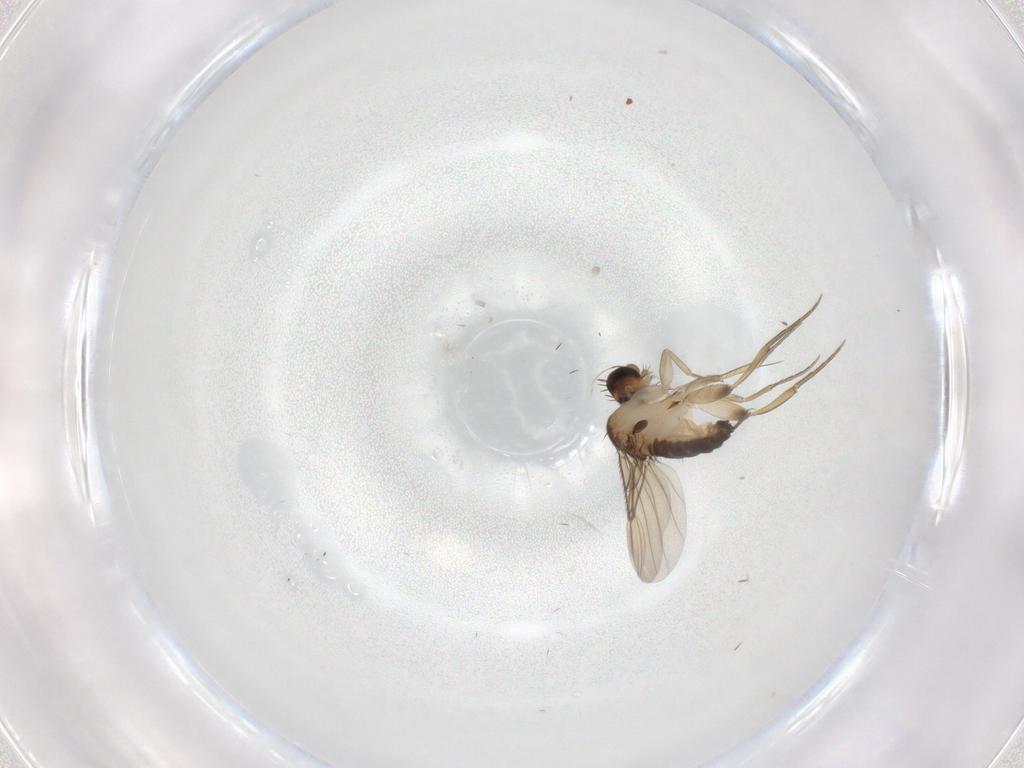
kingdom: Animalia
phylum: Arthropoda
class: Insecta
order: Diptera
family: Phoridae
